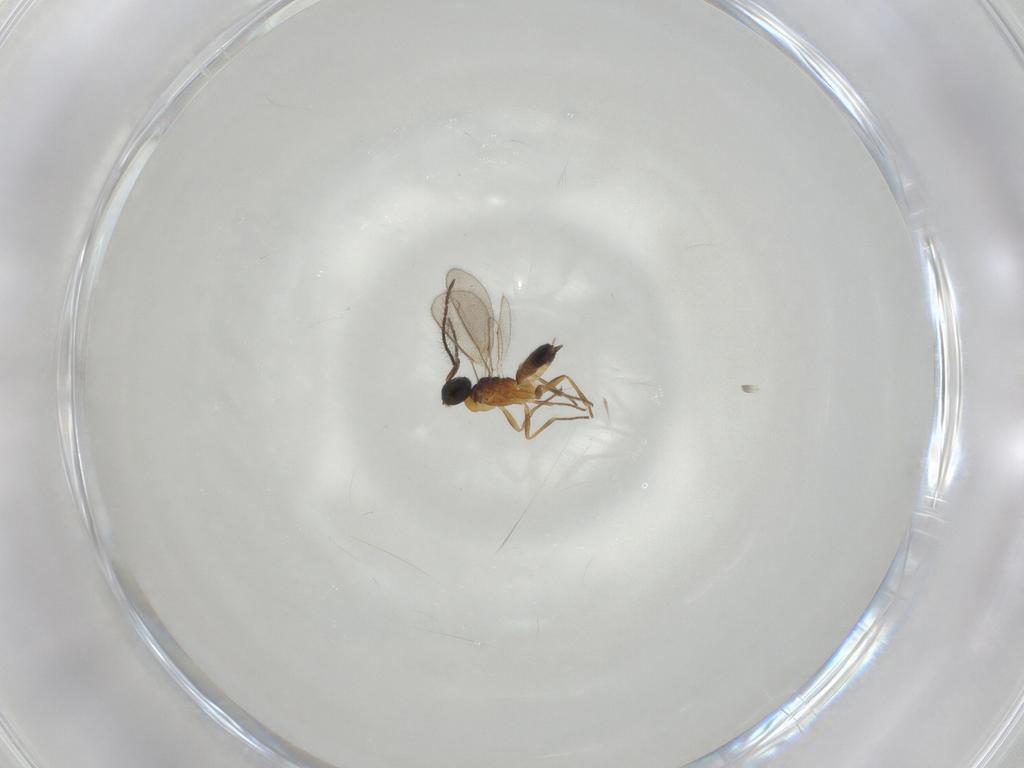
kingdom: Animalia
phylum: Arthropoda
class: Insecta
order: Hymenoptera
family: Eupelmidae
